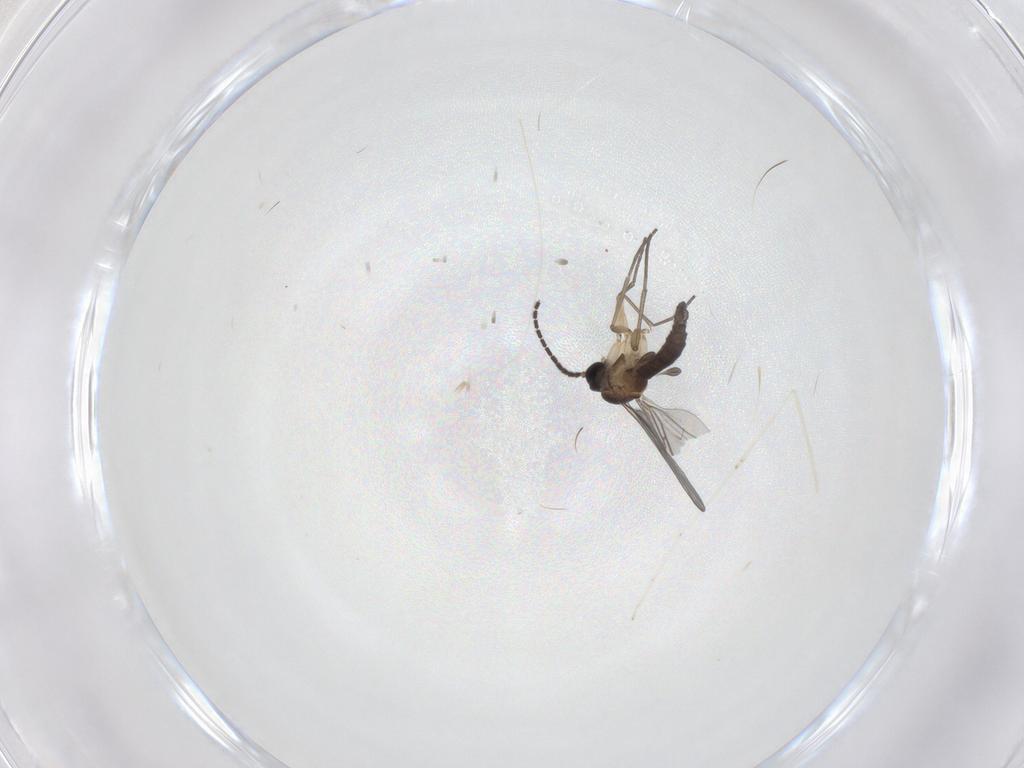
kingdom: Animalia
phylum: Arthropoda
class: Insecta
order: Diptera
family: Sciaridae
